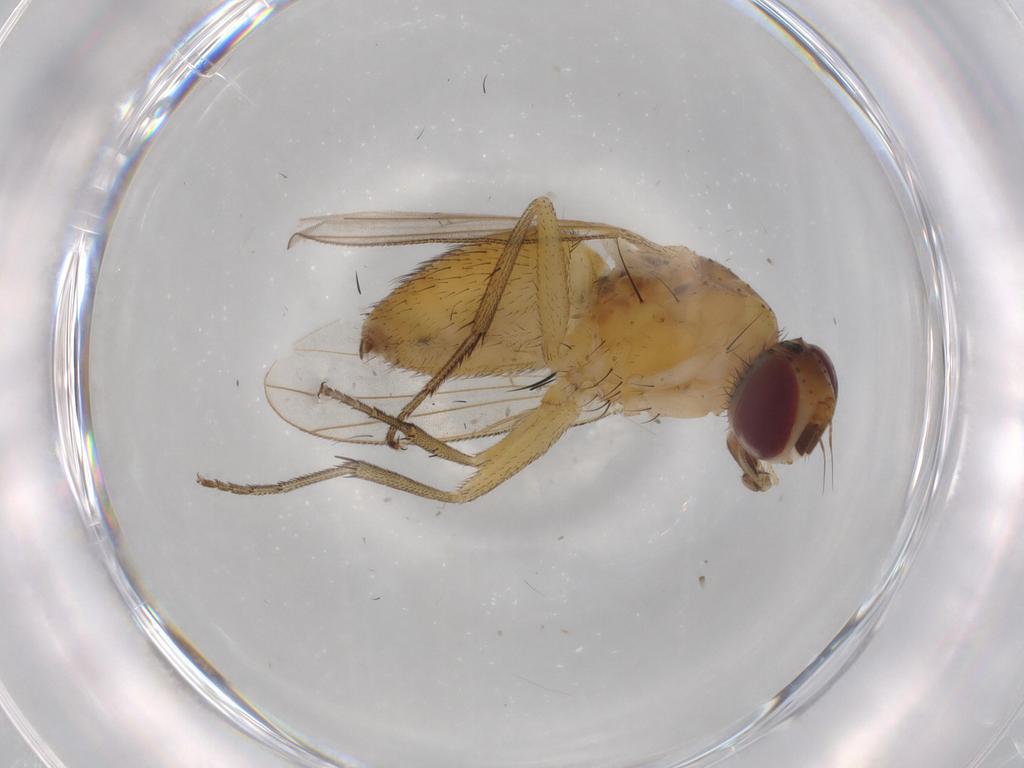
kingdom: Animalia
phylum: Arthropoda
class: Insecta
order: Diptera
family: Muscidae
